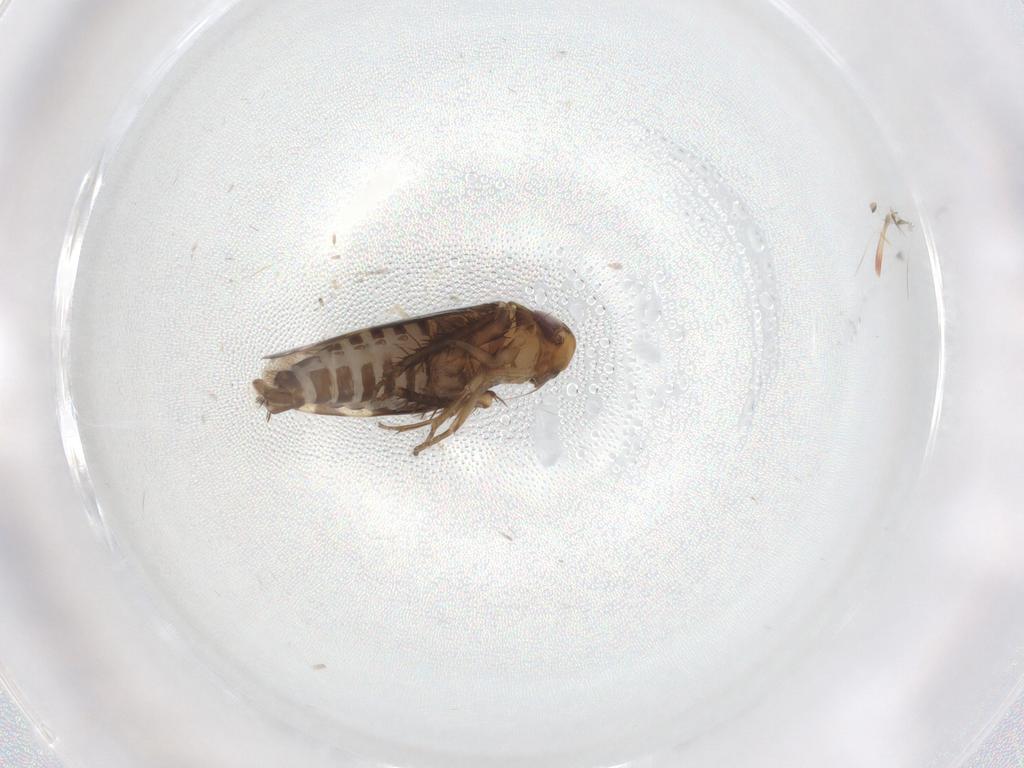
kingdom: Animalia
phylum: Arthropoda
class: Insecta
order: Hemiptera
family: Cicadellidae
